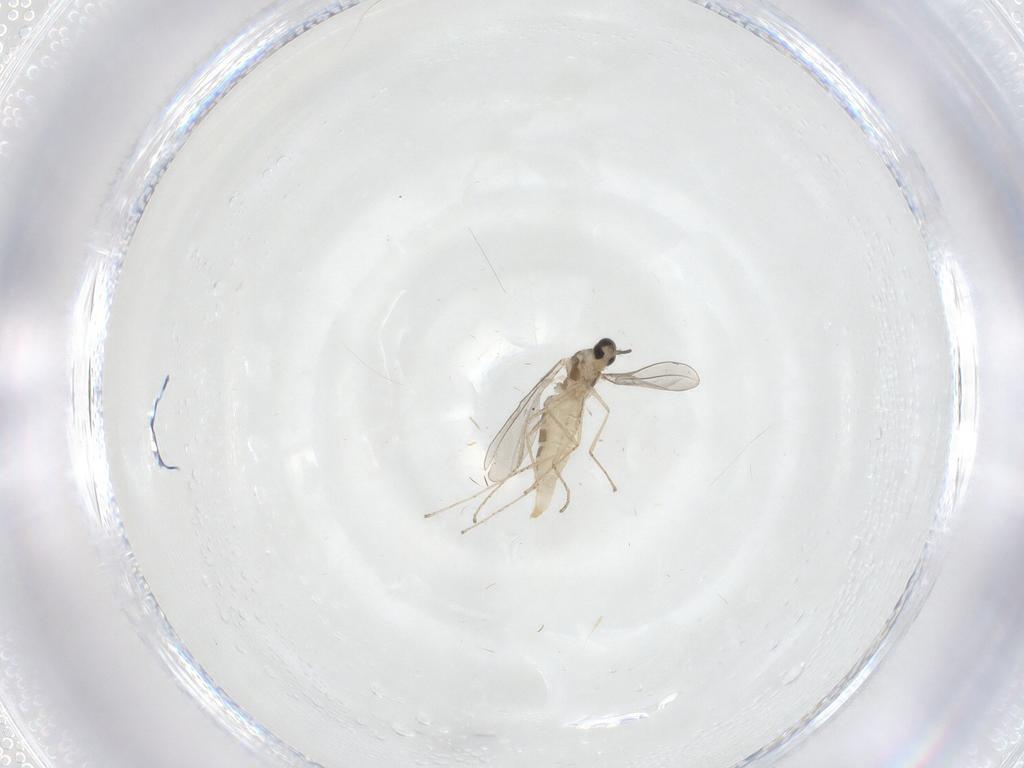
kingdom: Animalia
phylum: Arthropoda
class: Insecta
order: Diptera
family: Cecidomyiidae
